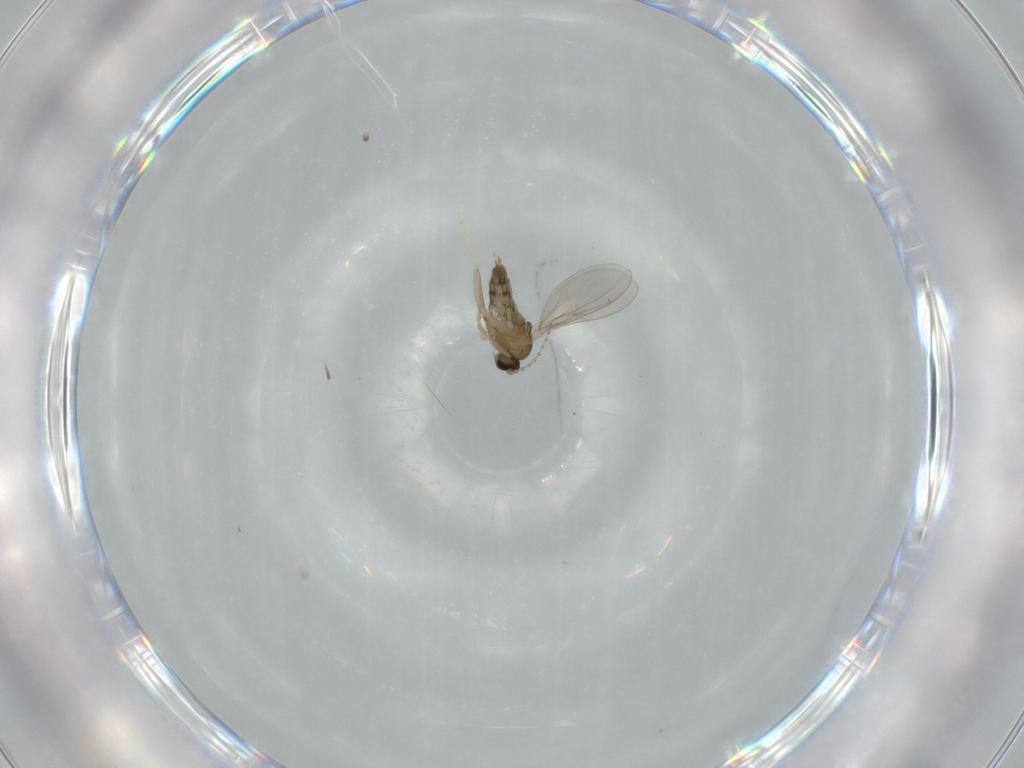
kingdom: Animalia
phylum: Arthropoda
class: Insecta
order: Diptera
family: Cecidomyiidae
